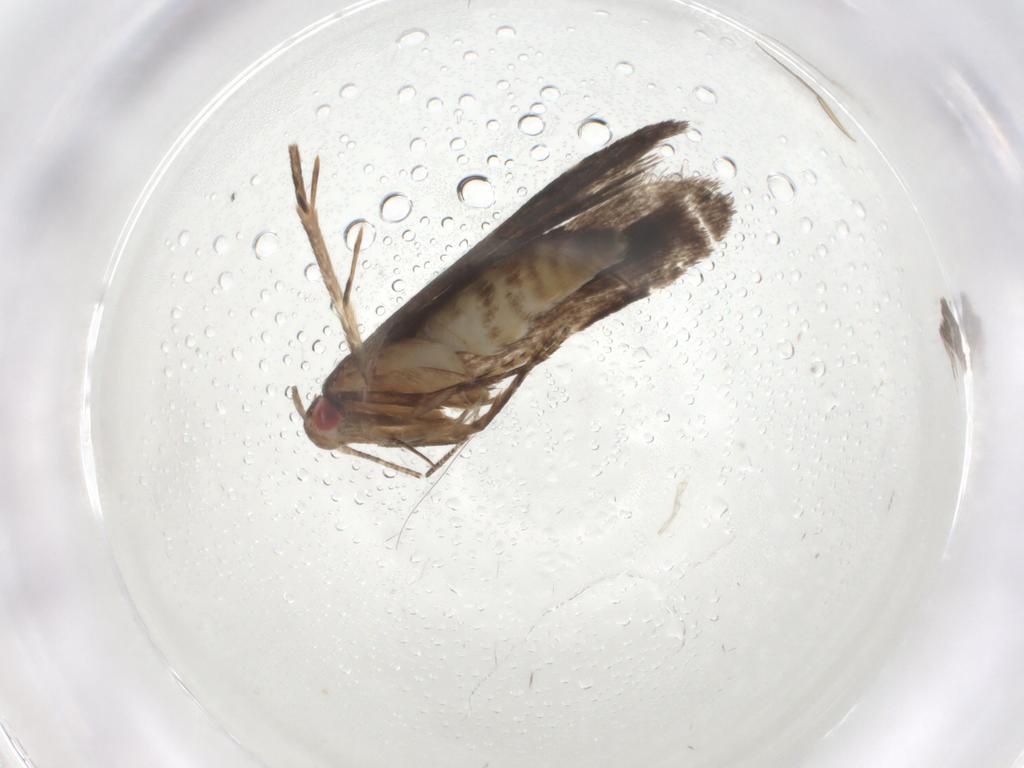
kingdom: Animalia
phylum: Arthropoda
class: Insecta
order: Lepidoptera
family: Gelechiidae
